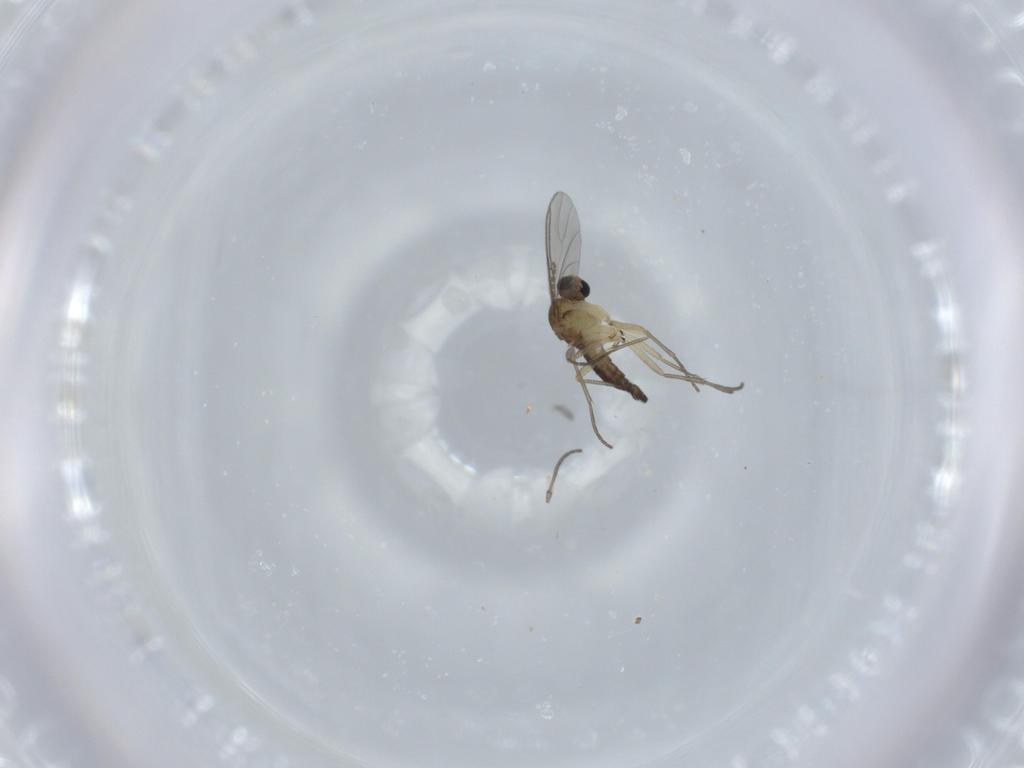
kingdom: Animalia
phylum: Arthropoda
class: Insecta
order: Diptera
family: Sciaridae
